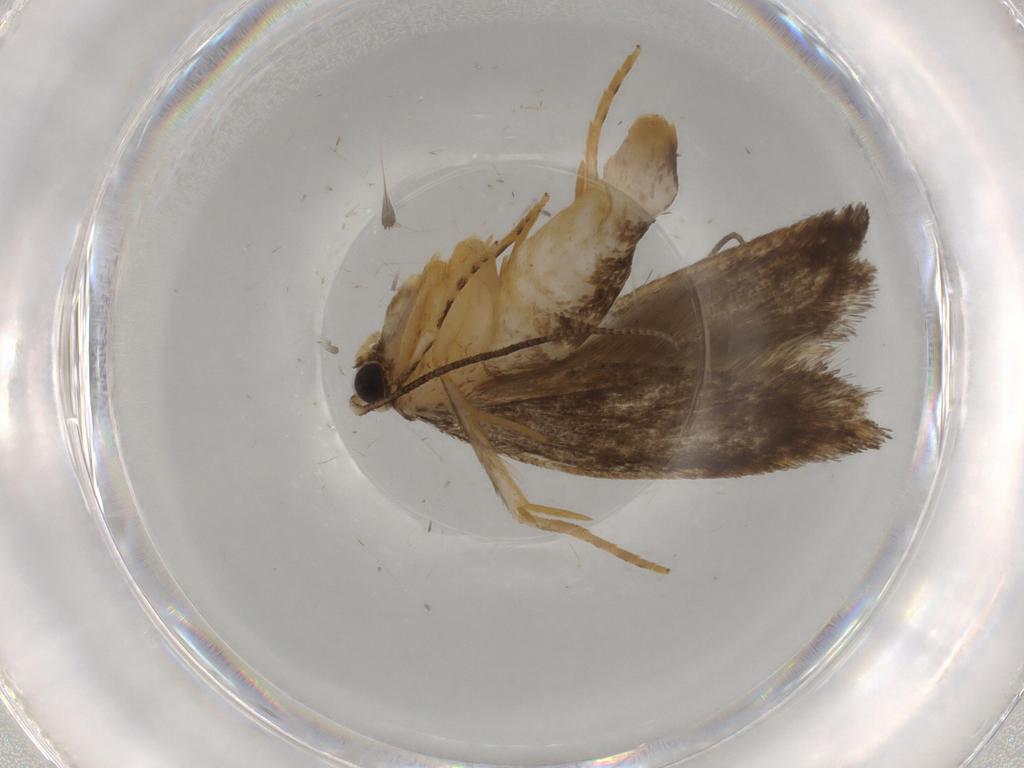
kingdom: Animalia
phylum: Arthropoda
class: Insecta
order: Lepidoptera
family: Tineidae
